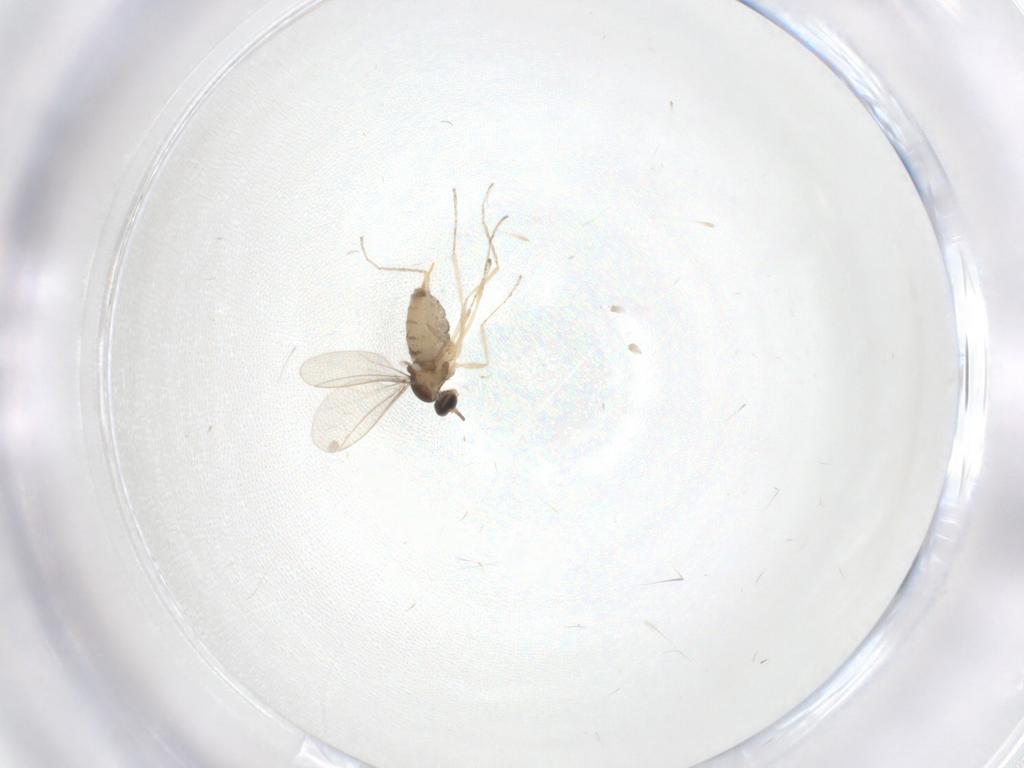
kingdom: Animalia
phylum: Arthropoda
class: Insecta
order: Diptera
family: Cecidomyiidae
